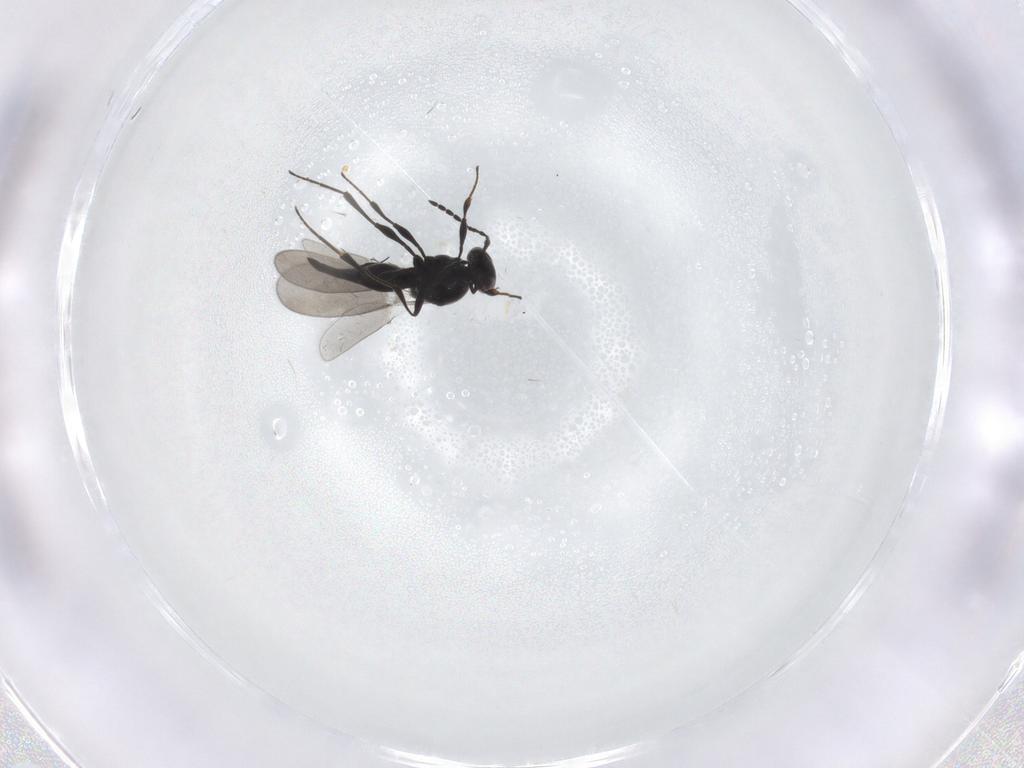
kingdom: Animalia
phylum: Arthropoda
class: Insecta
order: Hymenoptera
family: Platygastridae
